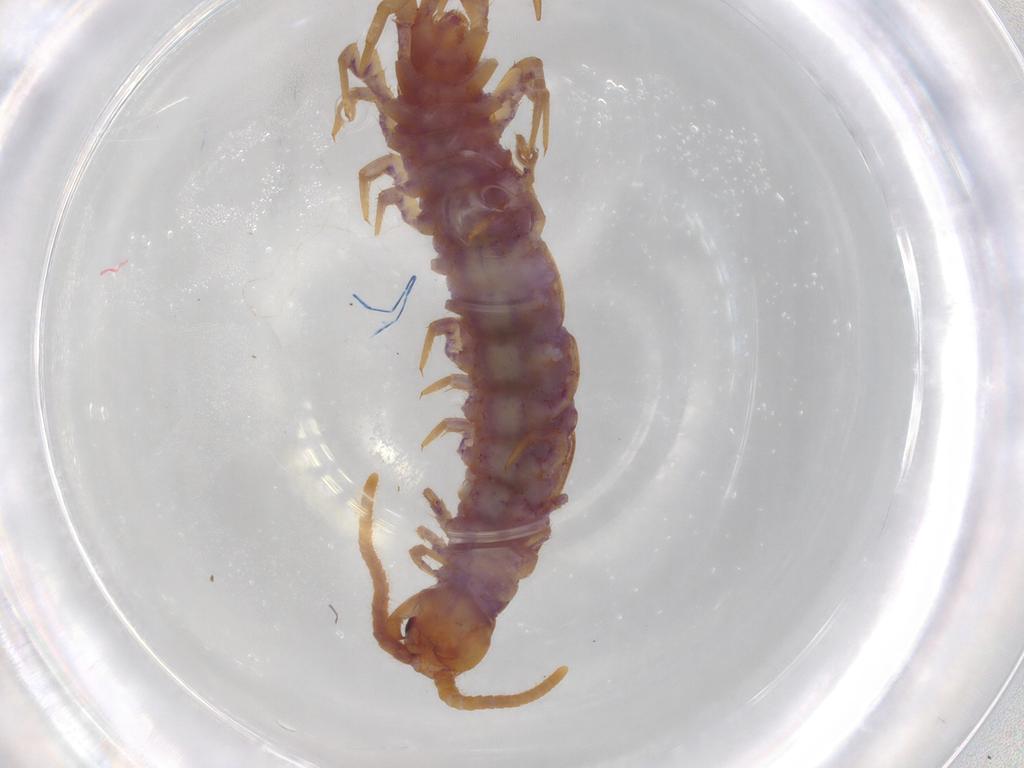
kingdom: Animalia
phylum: Arthropoda
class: Chilopoda
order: Lithobiomorpha
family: Lithobiidae
